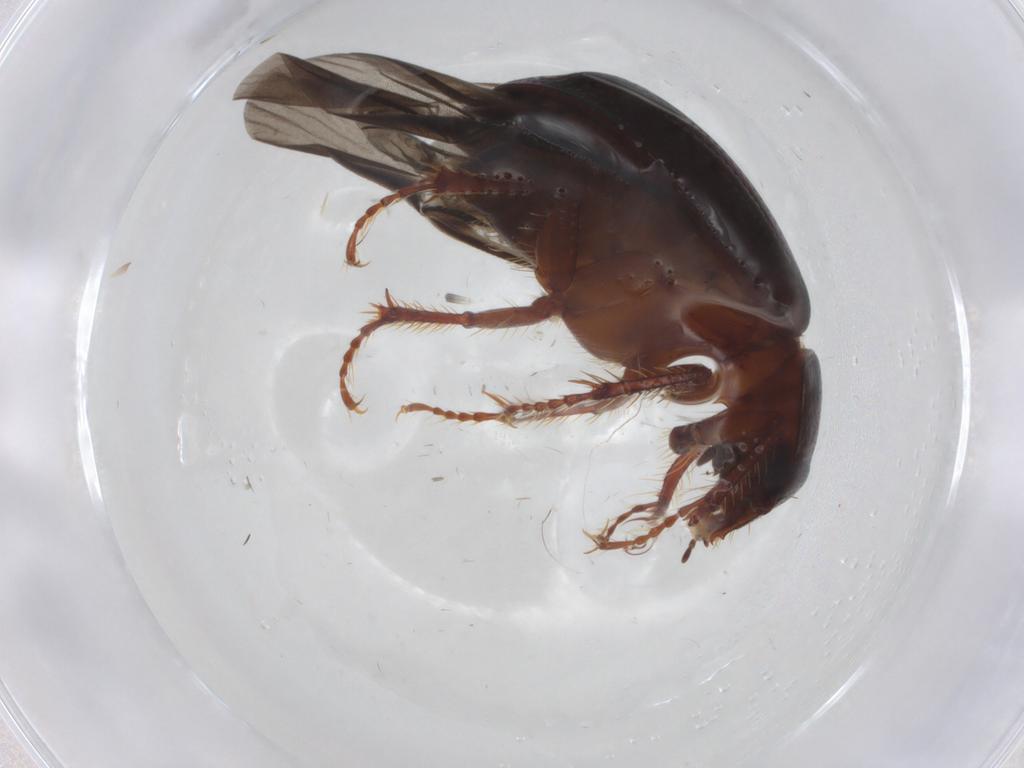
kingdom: Animalia
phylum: Arthropoda
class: Insecta
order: Coleoptera
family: Hybosoridae
